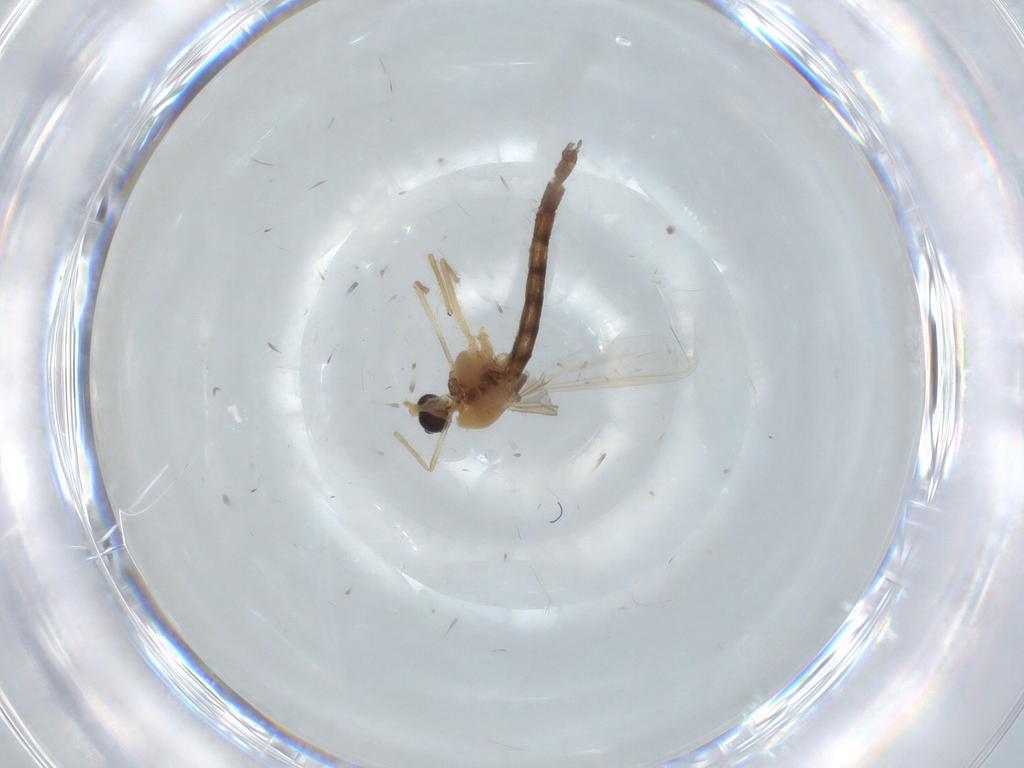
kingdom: Animalia
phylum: Arthropoda
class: Insecta
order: Diptera
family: Chironomidae
